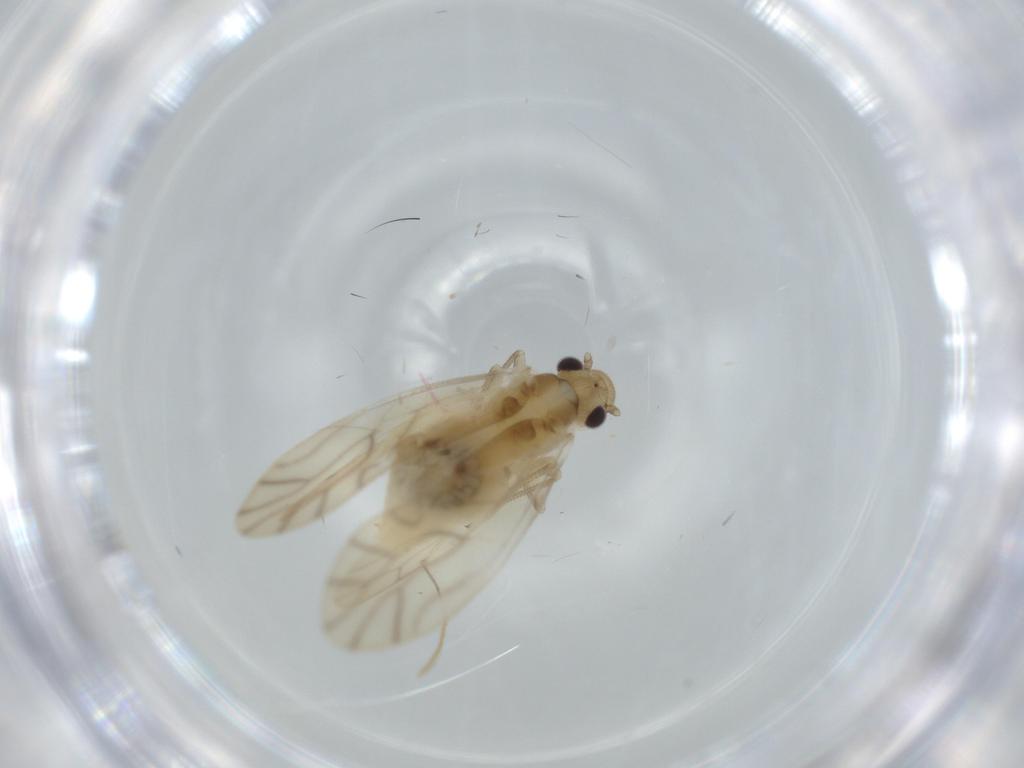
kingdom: Animalia
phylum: Arthropoda
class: Insecta
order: Psocodea
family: Caeciliusidae
